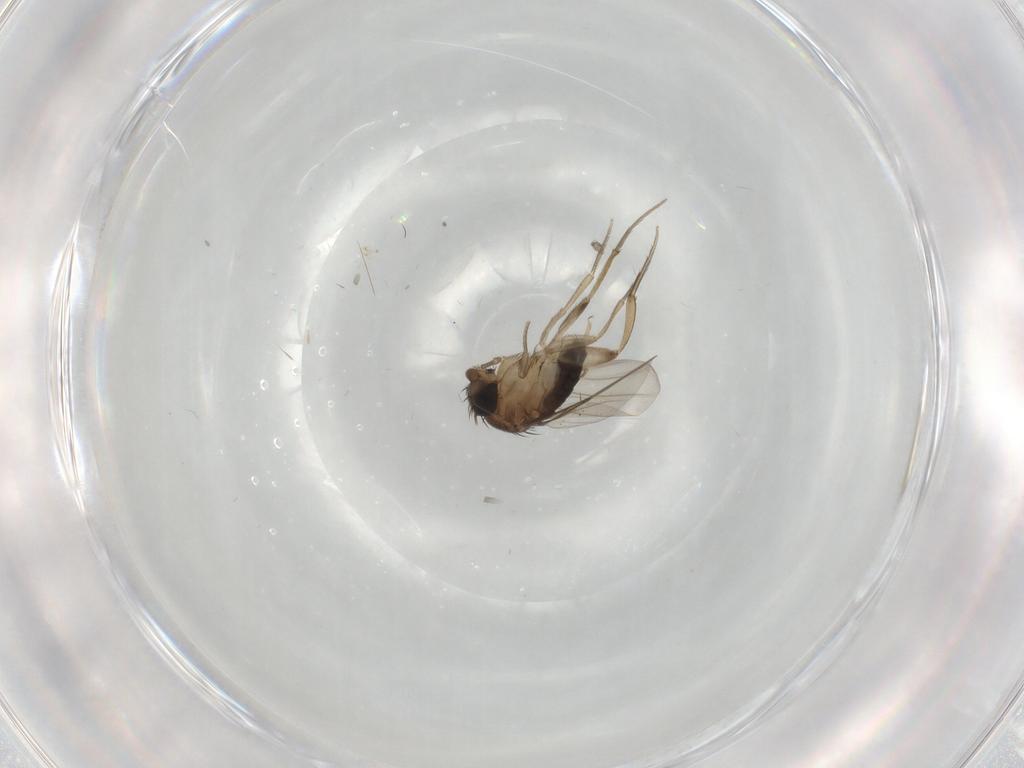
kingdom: Animalia
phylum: Arthropoda
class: Insecta
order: Diptera
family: Phoridae
